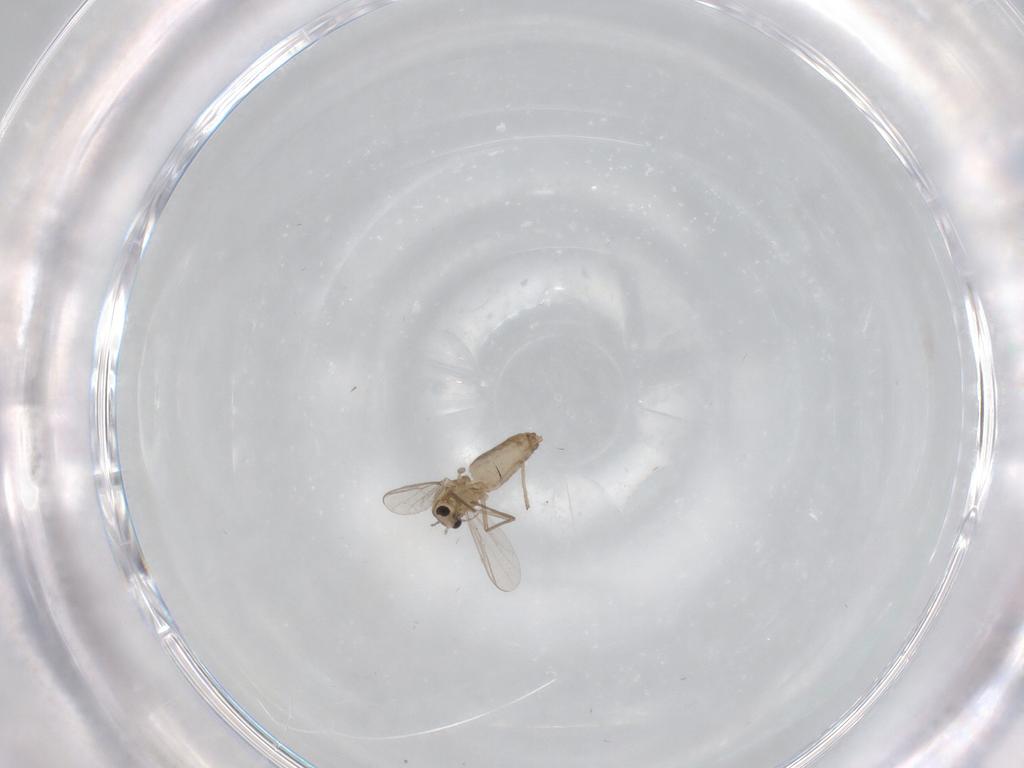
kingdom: Animalia
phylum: Arthropoda
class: Insecta
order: Diptera
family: Chironomidae
